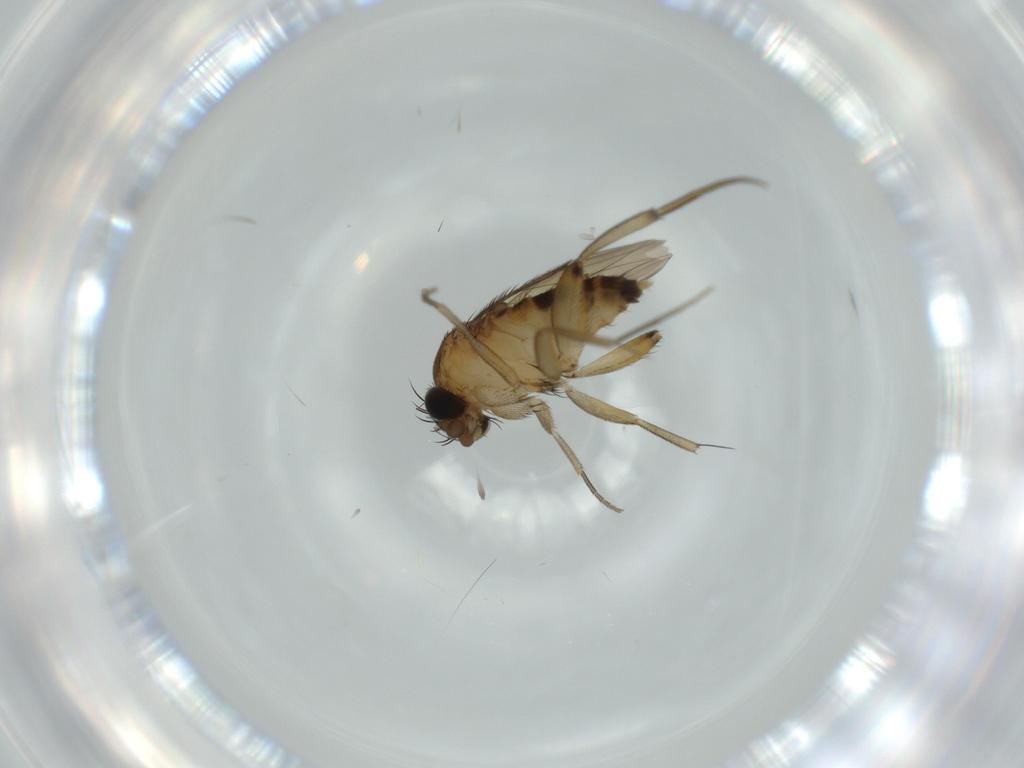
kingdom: Animalia
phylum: Arthropoda
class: Insecta
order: Diptera
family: Phoridae
